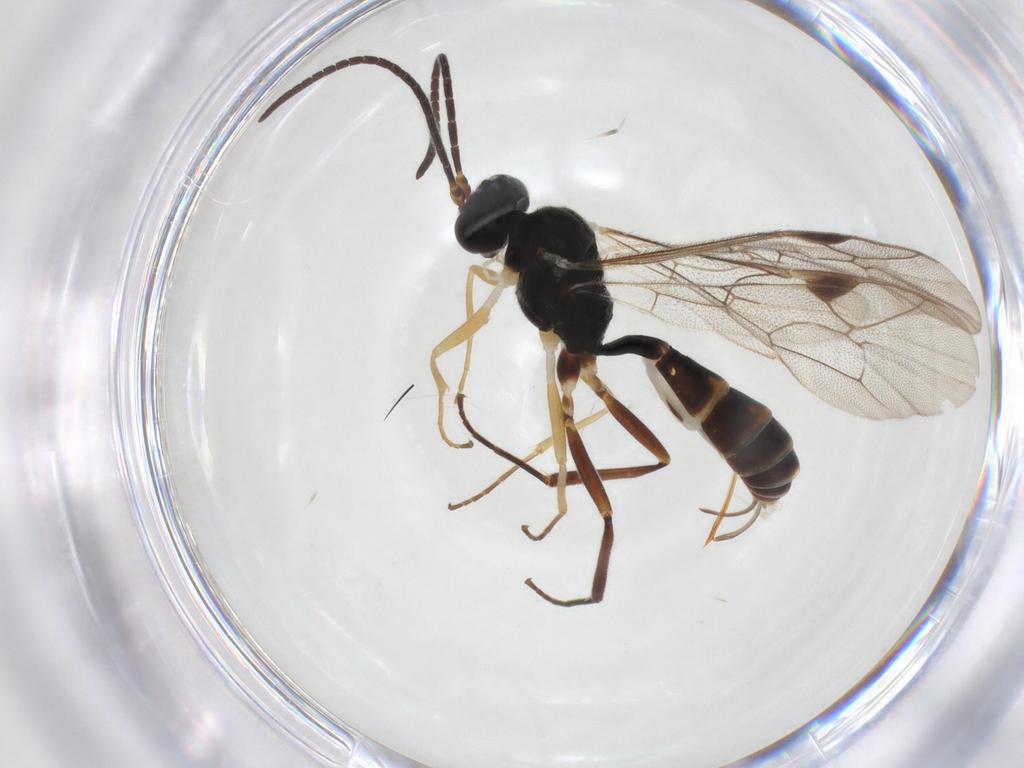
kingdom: Animalia
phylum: Arthropoda
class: Insecta
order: Hymenoptera
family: Ichneumonidae
